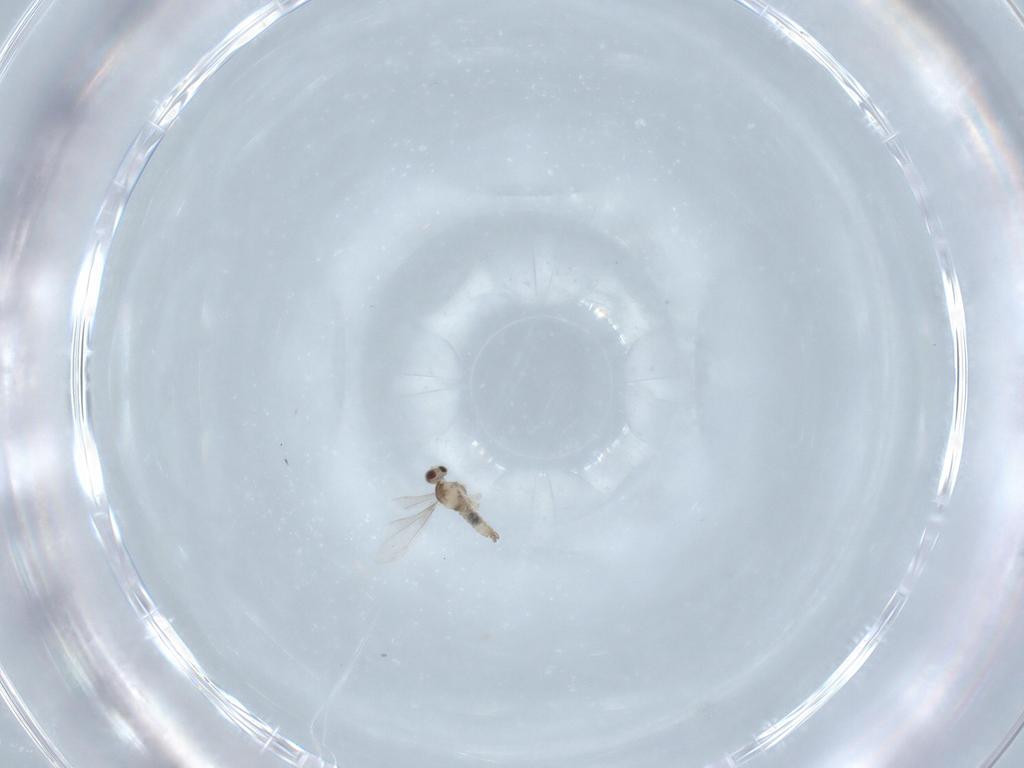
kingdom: Animalia
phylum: Arthropoda
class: Insecta
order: Diptera
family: Cecidomyiidae
